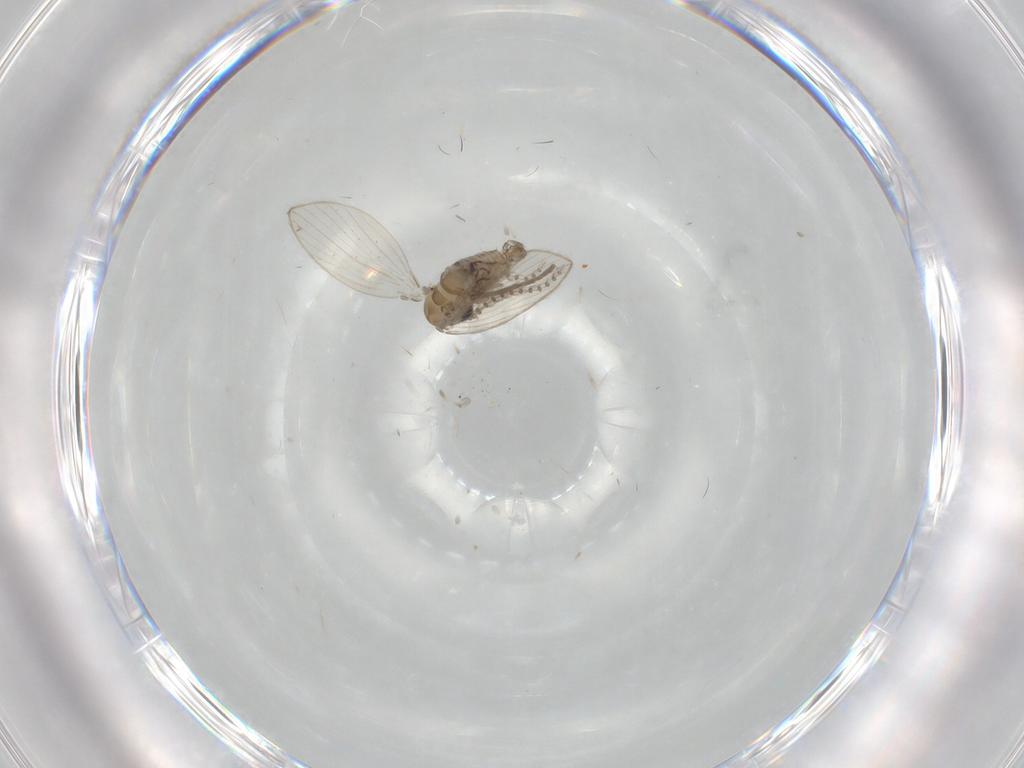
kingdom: Animalia
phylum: Arthropoda
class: Insecta
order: Diptera
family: Psychodidae
